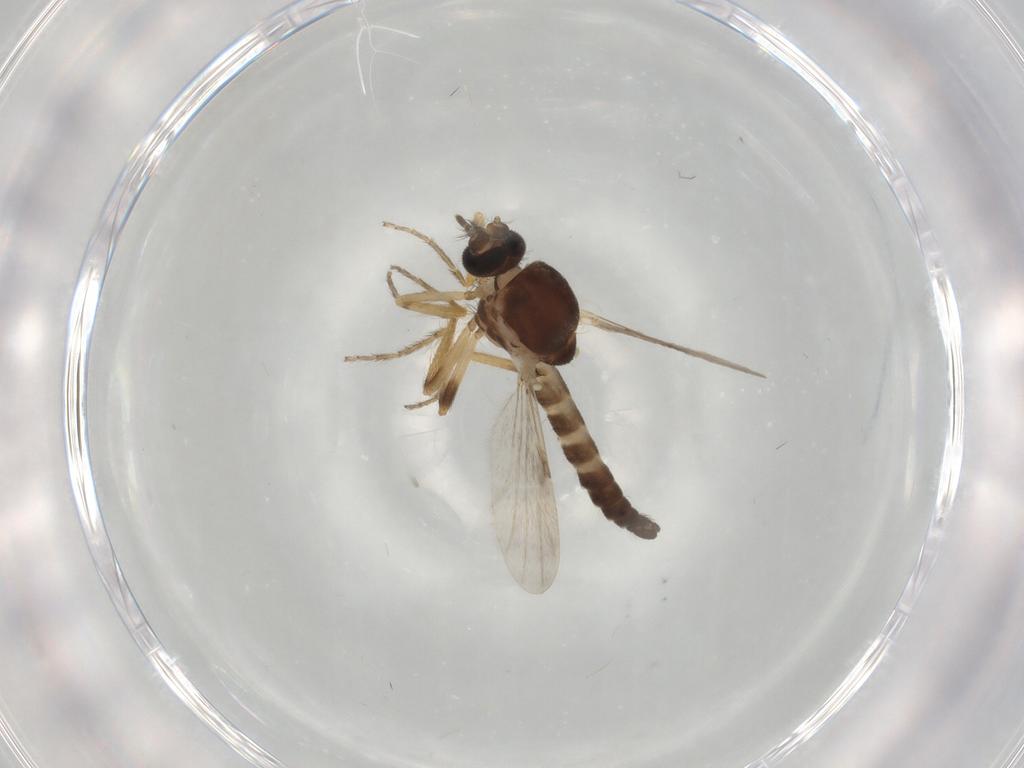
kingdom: Animalia
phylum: Arthropoda
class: Insecta
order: Diptera
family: Ceratopogonidae
